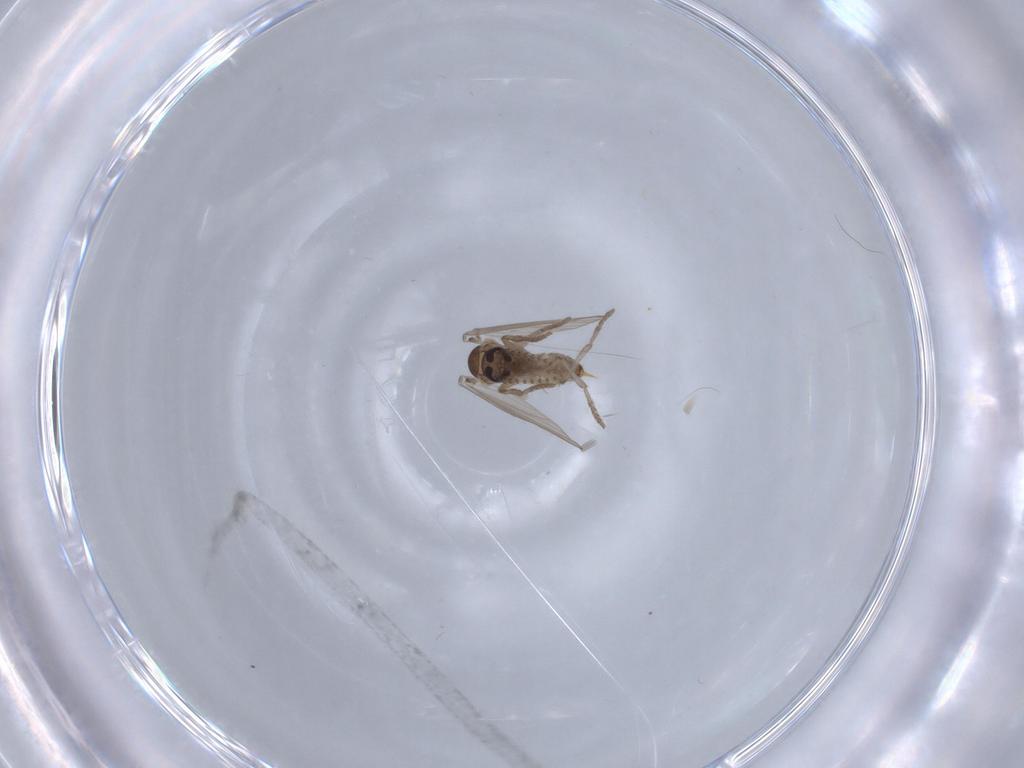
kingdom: Animalia
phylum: Arthropoda
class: Insecta
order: Diptera
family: Psychodidae
